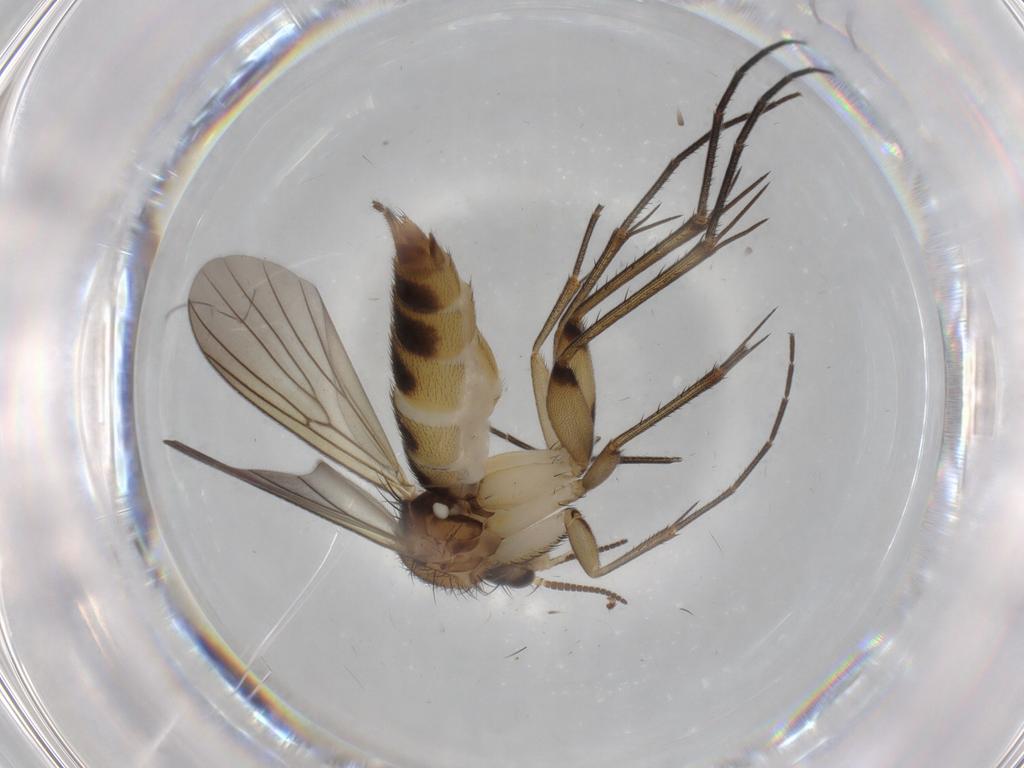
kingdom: Animalia
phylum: Arthropoda
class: Insecta
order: Diptera
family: Mycetophilidae
